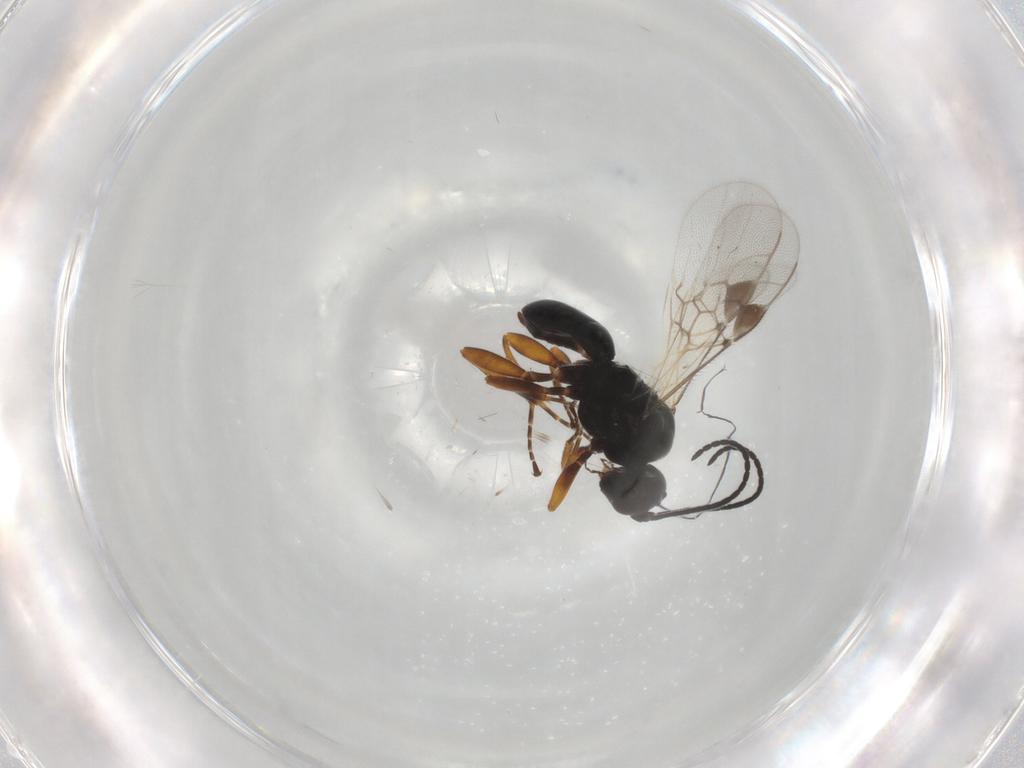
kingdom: Animalia
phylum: Arthropoda
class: Insecta
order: Hymenoptera
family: Braconidae
